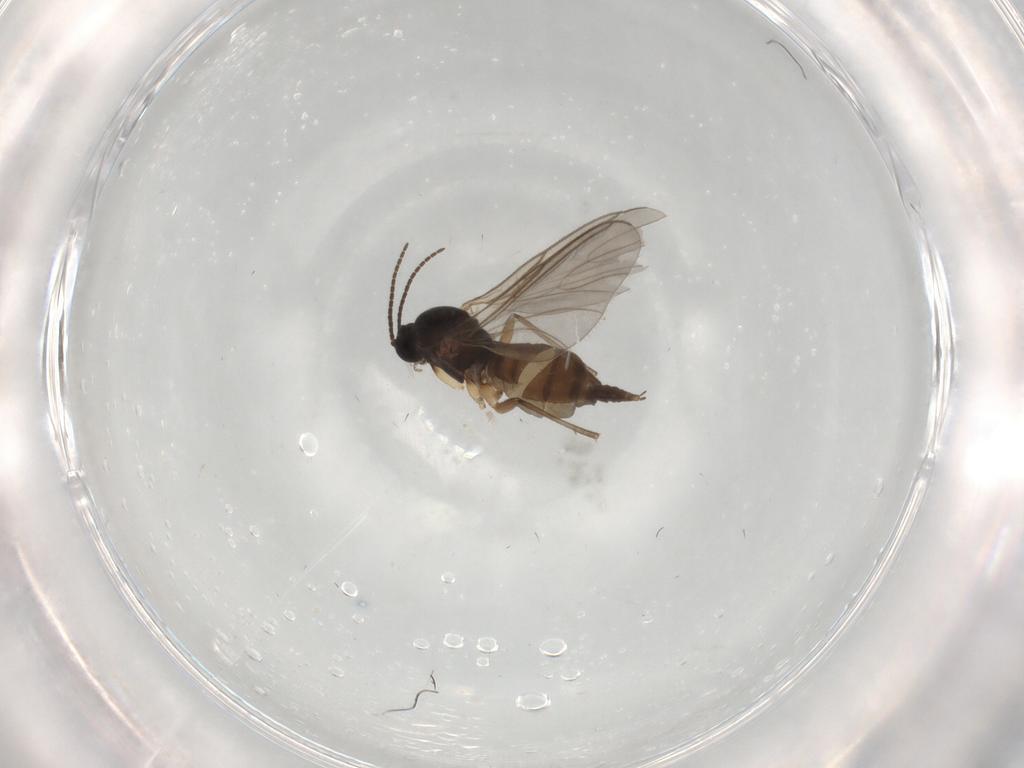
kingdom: Animalia
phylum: Arthropoda
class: Insecta
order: Diptera
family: Sciaridae
